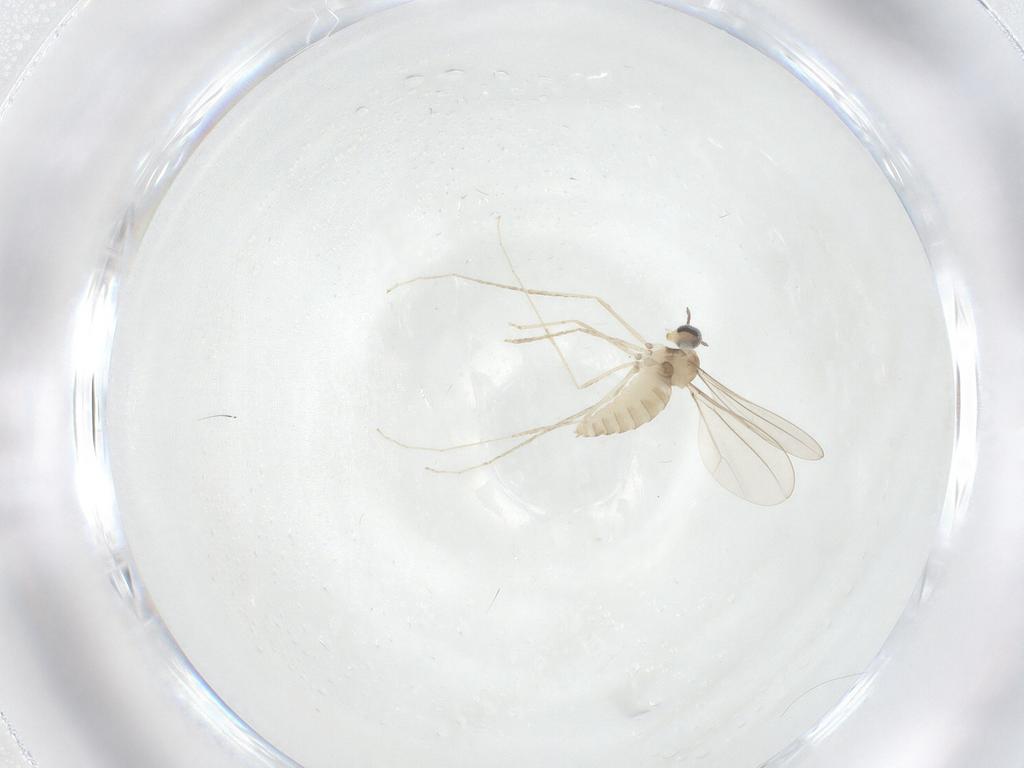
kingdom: Animalia
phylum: Arthropoda
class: Insecta
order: Diptera
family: Cecidomyiidae
